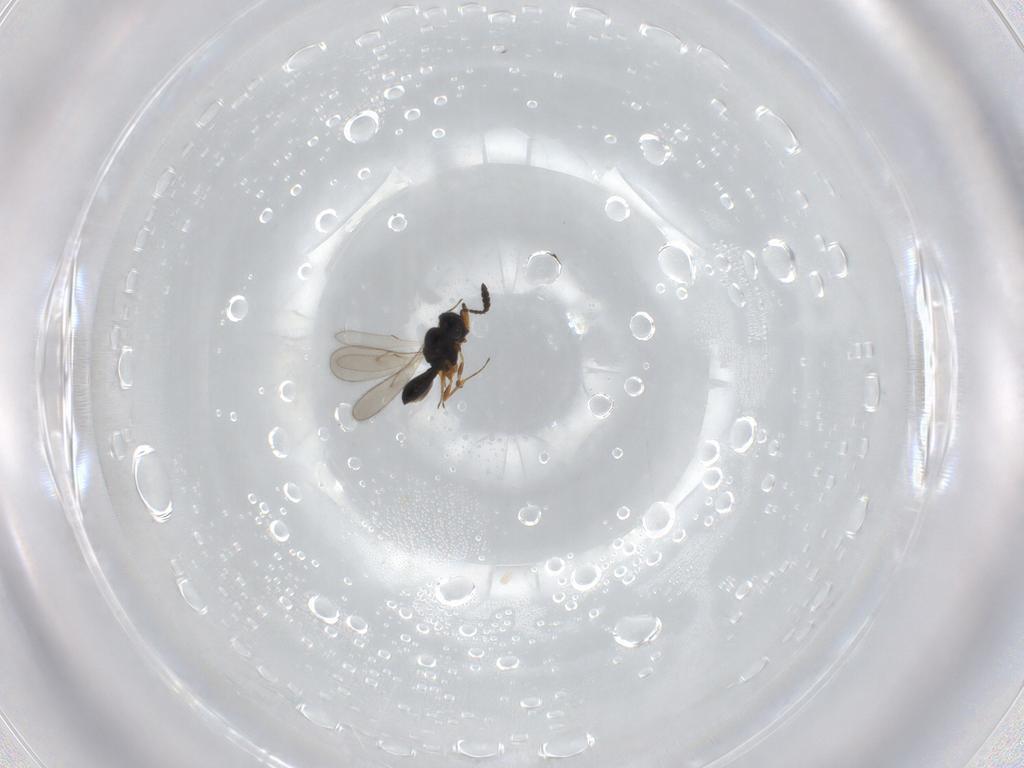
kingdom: Animalia
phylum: Arthropoda
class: Insecta
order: Hymenoptera
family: Scelionidae
